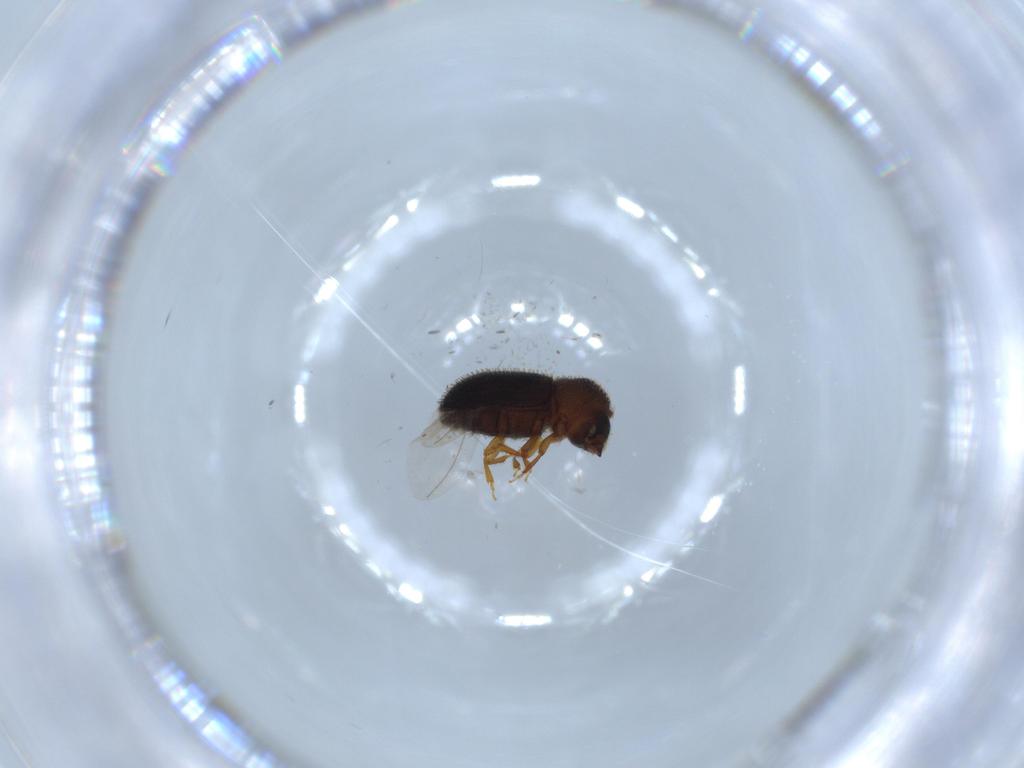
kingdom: Animalia
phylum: Arthropoda
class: Insecta
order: Coleoptera
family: Curculionidae
